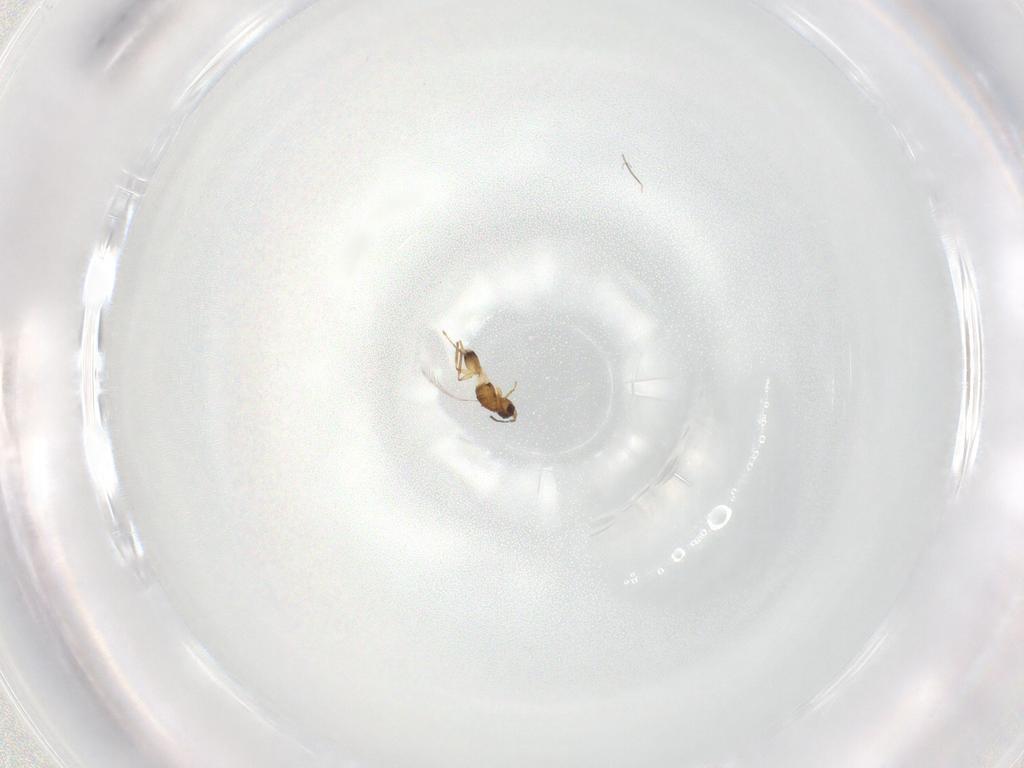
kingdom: Animalia
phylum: Arthropoda
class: Insecta
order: Hymenoptera
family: Mymaridae
